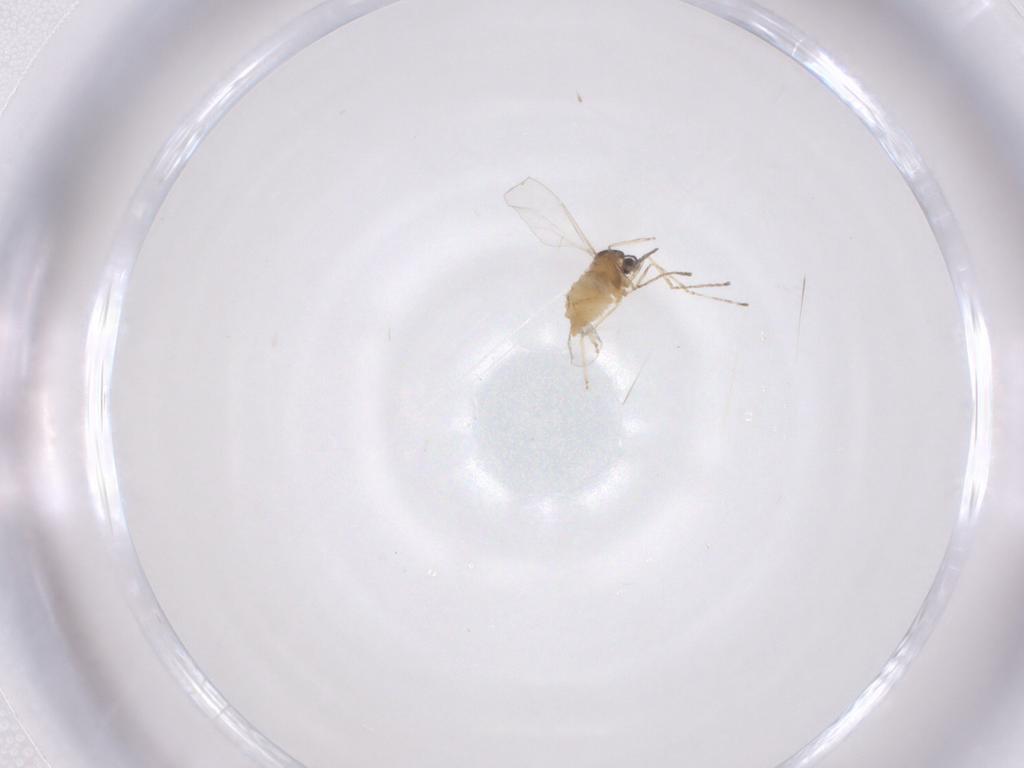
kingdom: Animalia
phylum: Arthropoda
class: Insecta
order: Diptera
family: Cecidomyiidae
